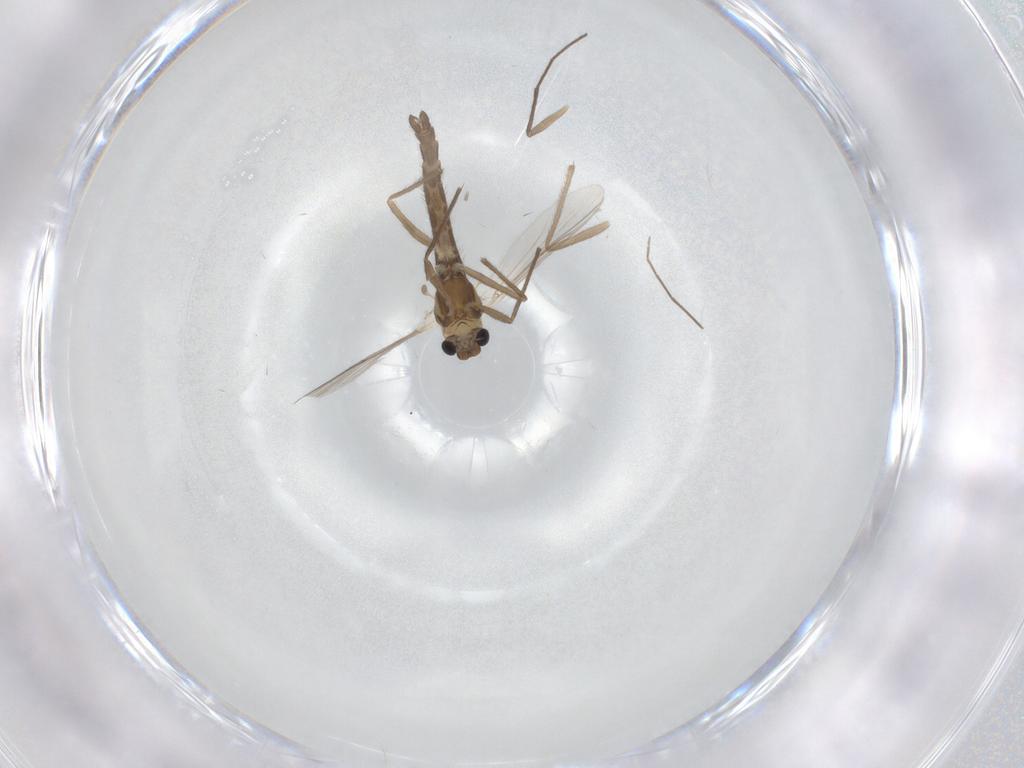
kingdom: Animalia
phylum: Arthropoda
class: Insecta
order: Diptera
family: Chironomidae
